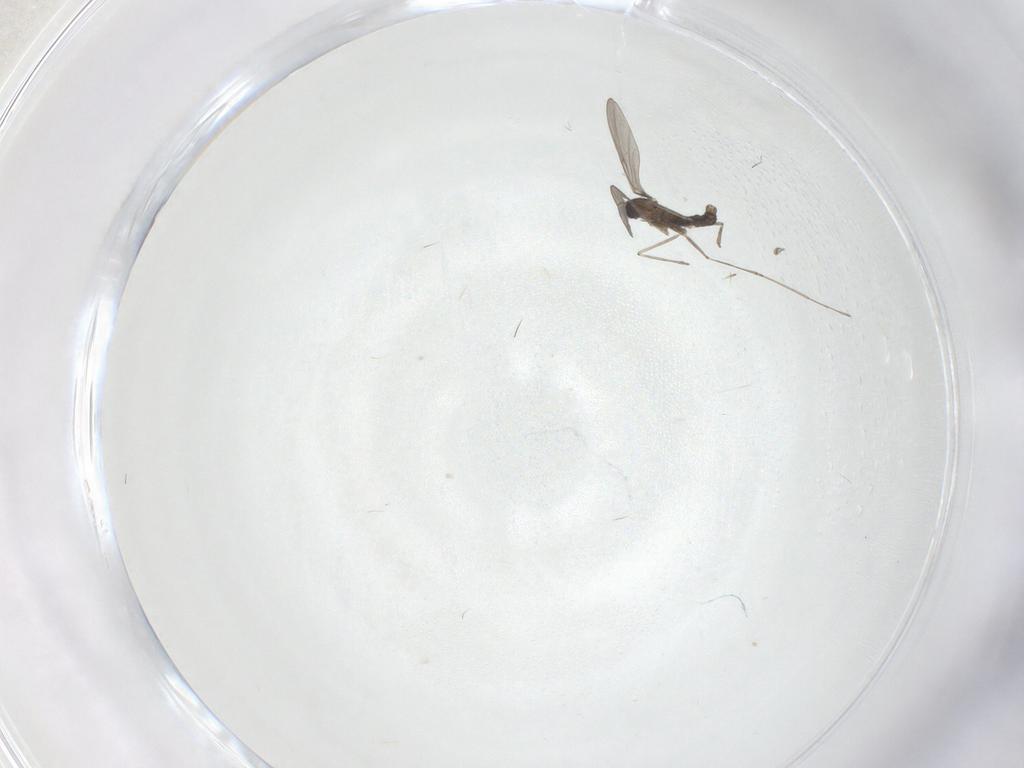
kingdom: Animalia
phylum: Arthropoda
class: Insecta
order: Diptera
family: Cecidomyiidae
